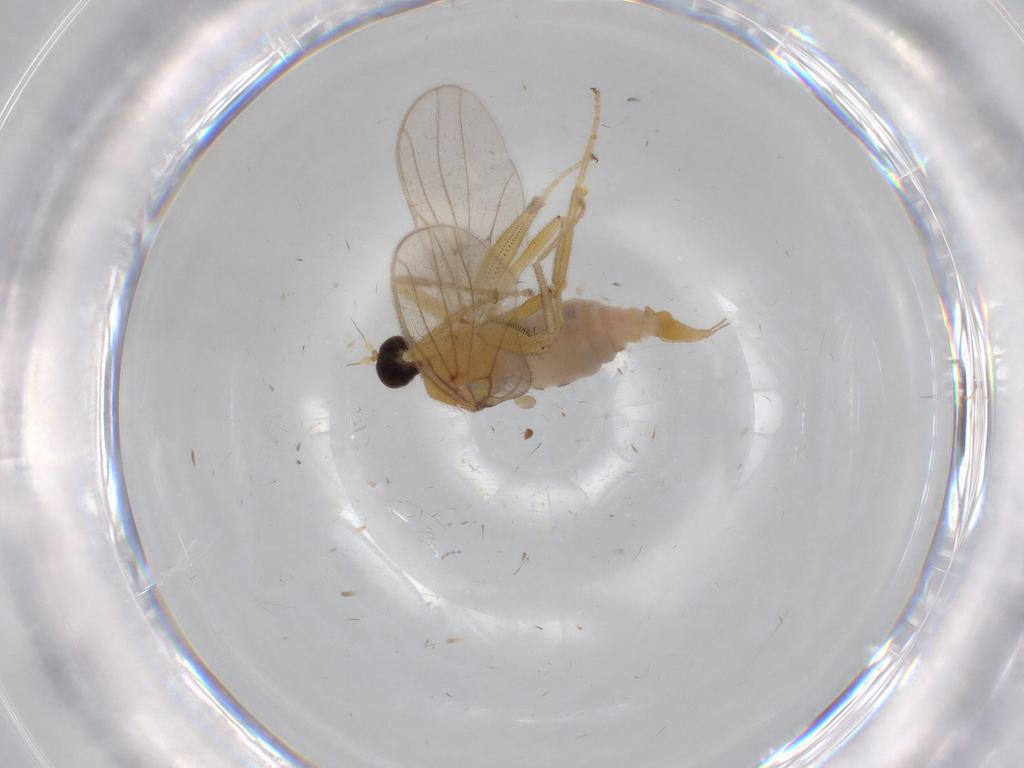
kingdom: Animalia
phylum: Arthropoda
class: Insecta
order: Diptera
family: Hybotidae
